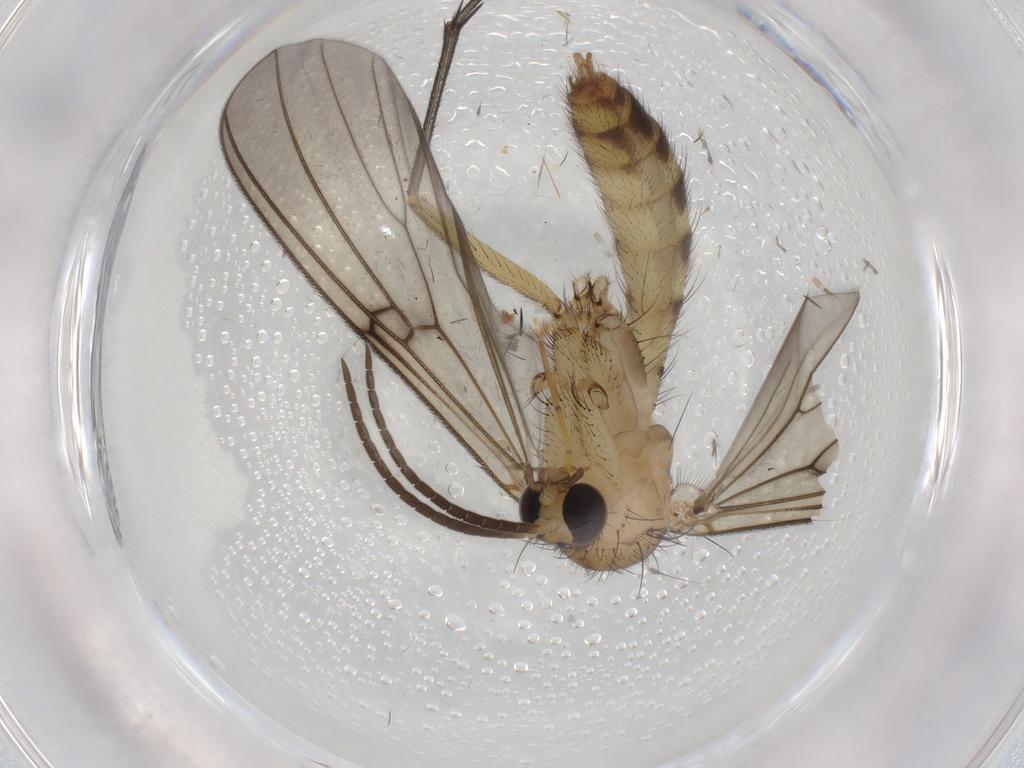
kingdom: Animalia
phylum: Arthropoda
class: Insecta
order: Diptera
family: Mycetophilidae
